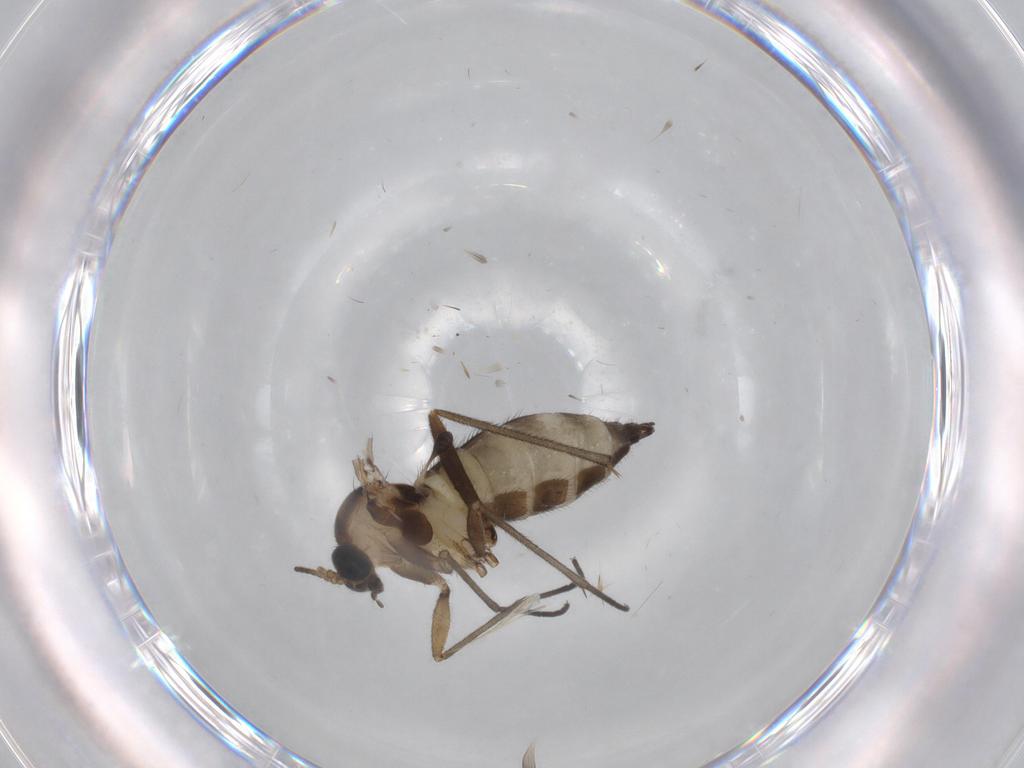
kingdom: Animalia
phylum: Arthropoda
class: Insecta
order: Diptera
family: Sciaridae
